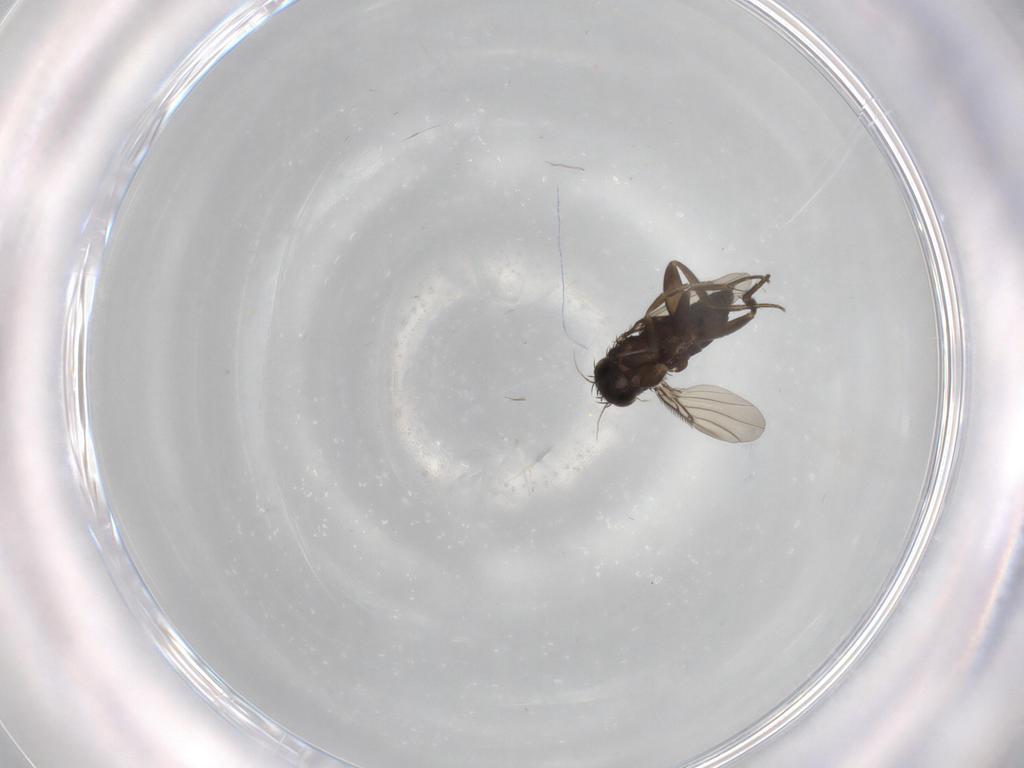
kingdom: Animalia
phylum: Arthropoda
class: Insecta
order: Diptera
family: Sciaridae
